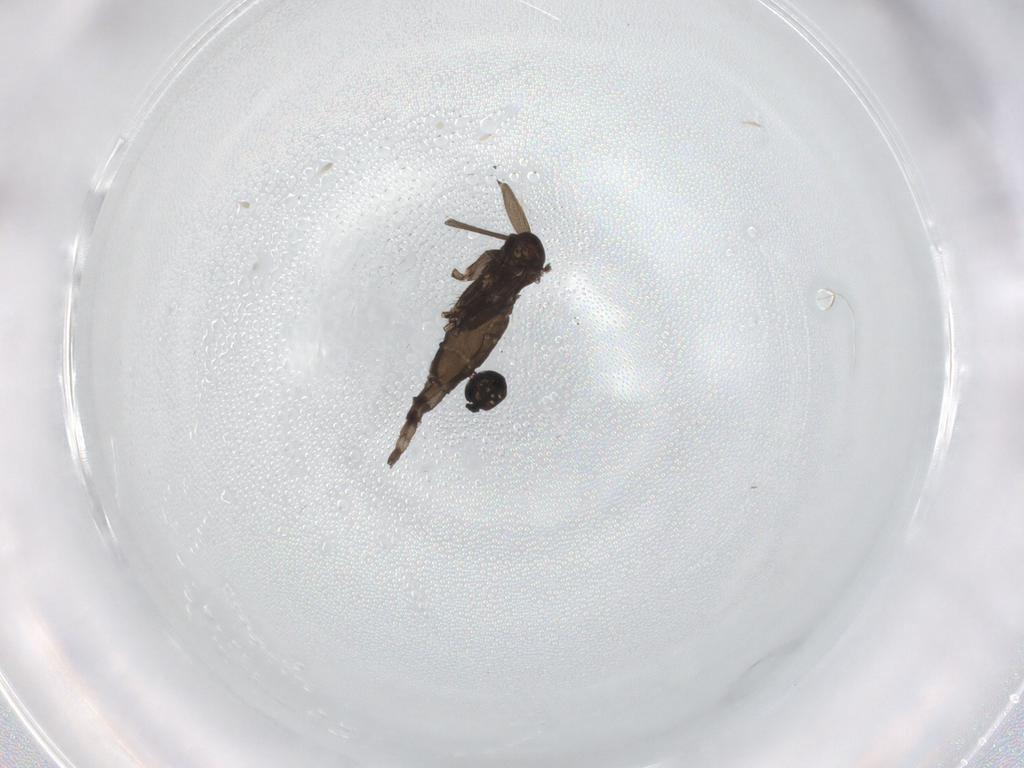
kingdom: Animalia
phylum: Arthropoda
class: Insecta
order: Diptera
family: Sciaridae
